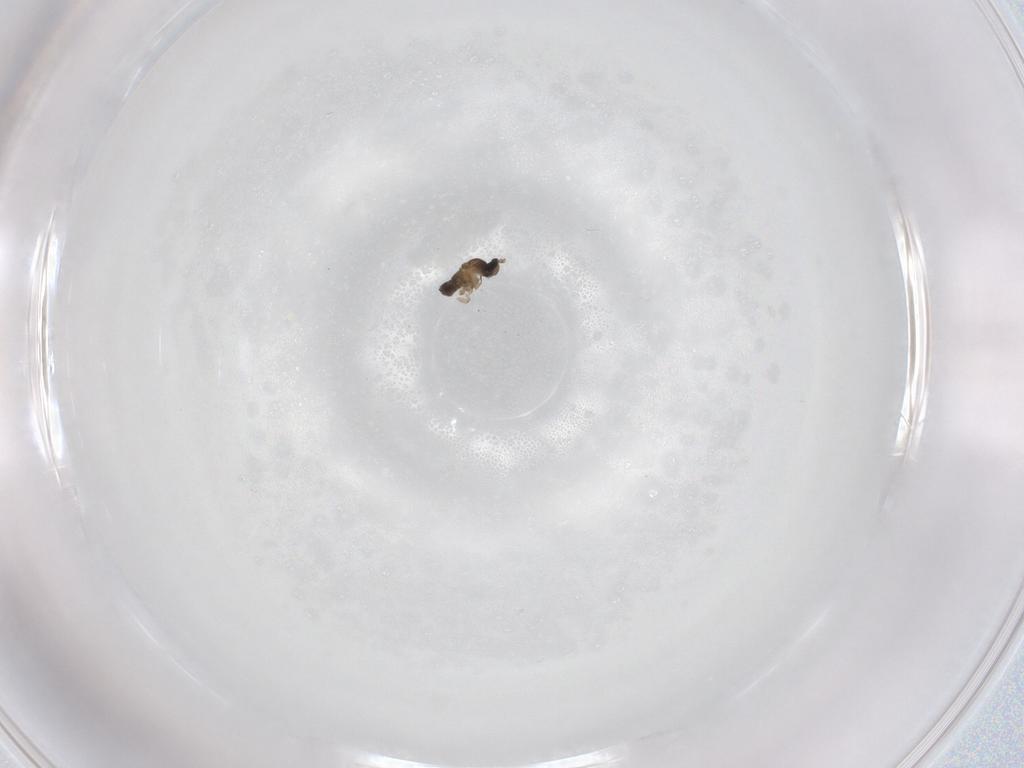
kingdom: Animalia
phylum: Arthropoda
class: Insecta
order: Diptera
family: Cecidomyiidae
